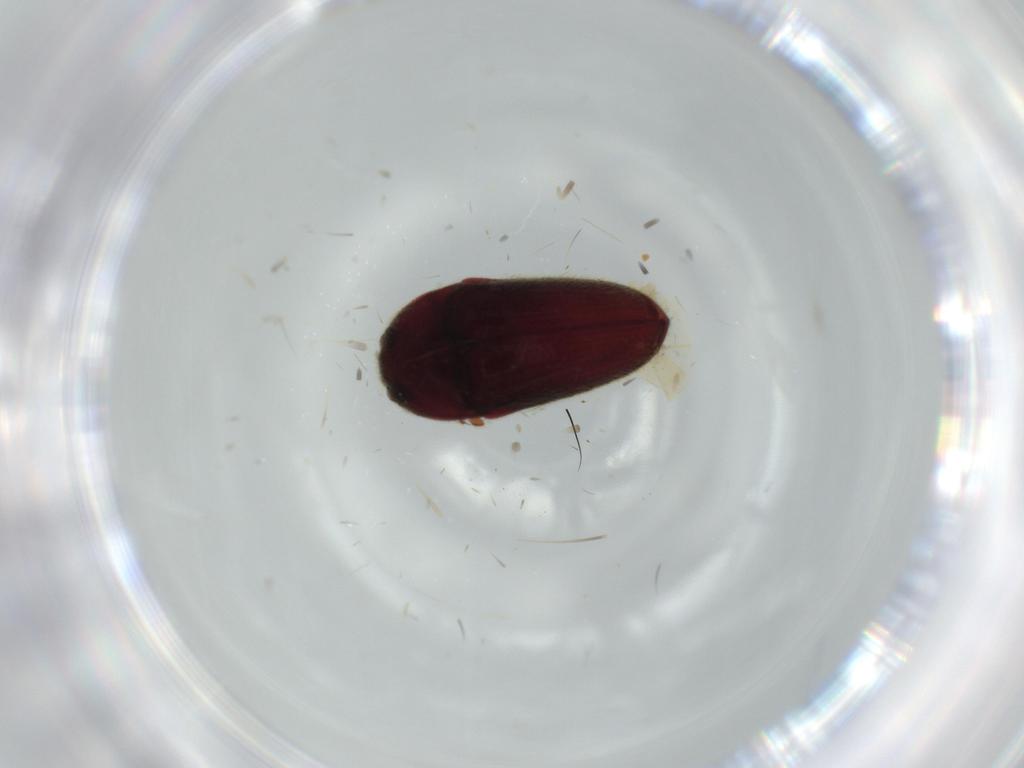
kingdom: Animalia
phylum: Arthropoda
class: Insecta
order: Coleoptera
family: Throscidae
